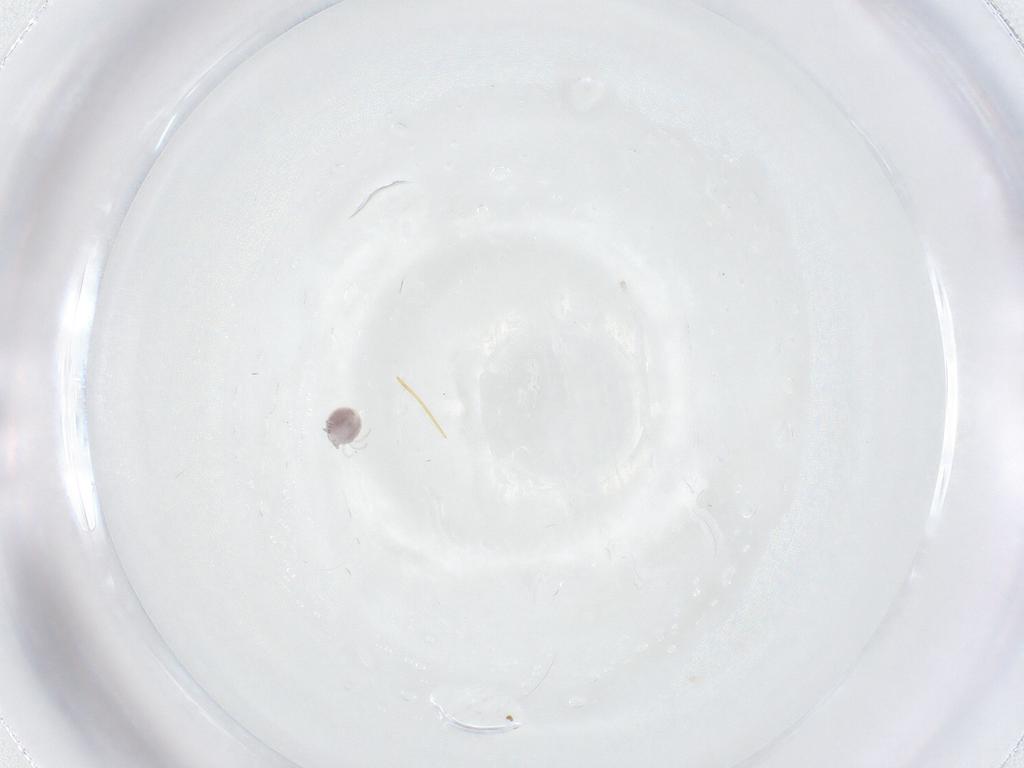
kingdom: Animalia
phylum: Arthropoda
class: Arachnida
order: Trombidiformes
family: Pionidae
